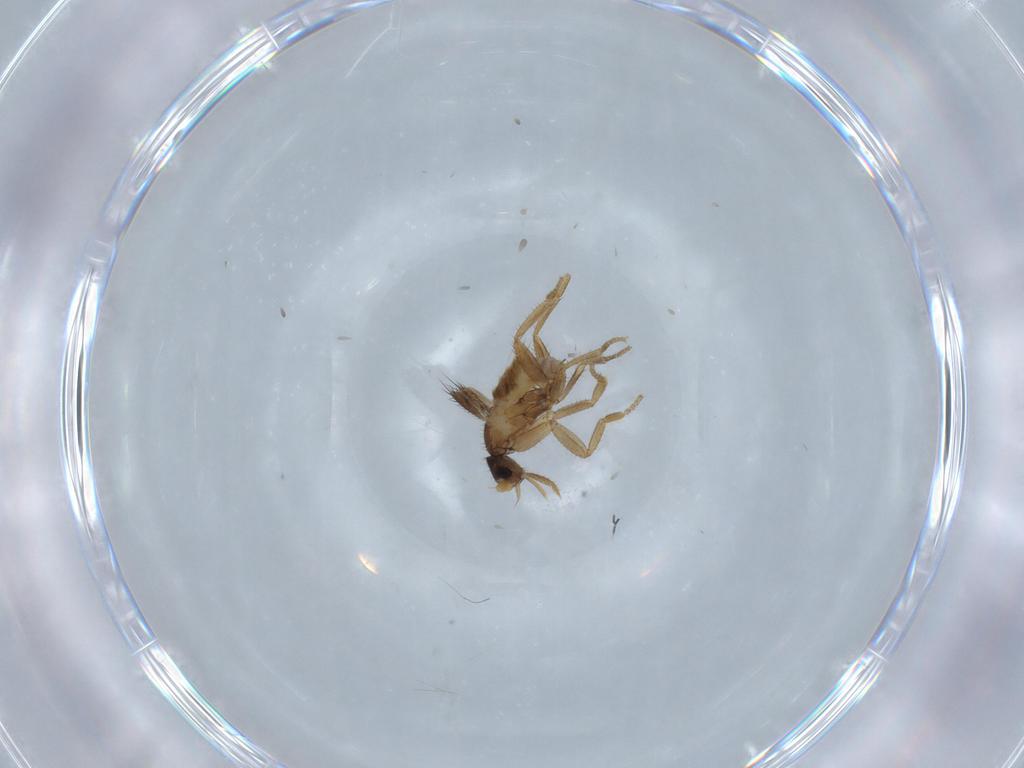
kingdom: Animalia
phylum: Arthropoda
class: Insecta
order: Diptera
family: Phoridae
